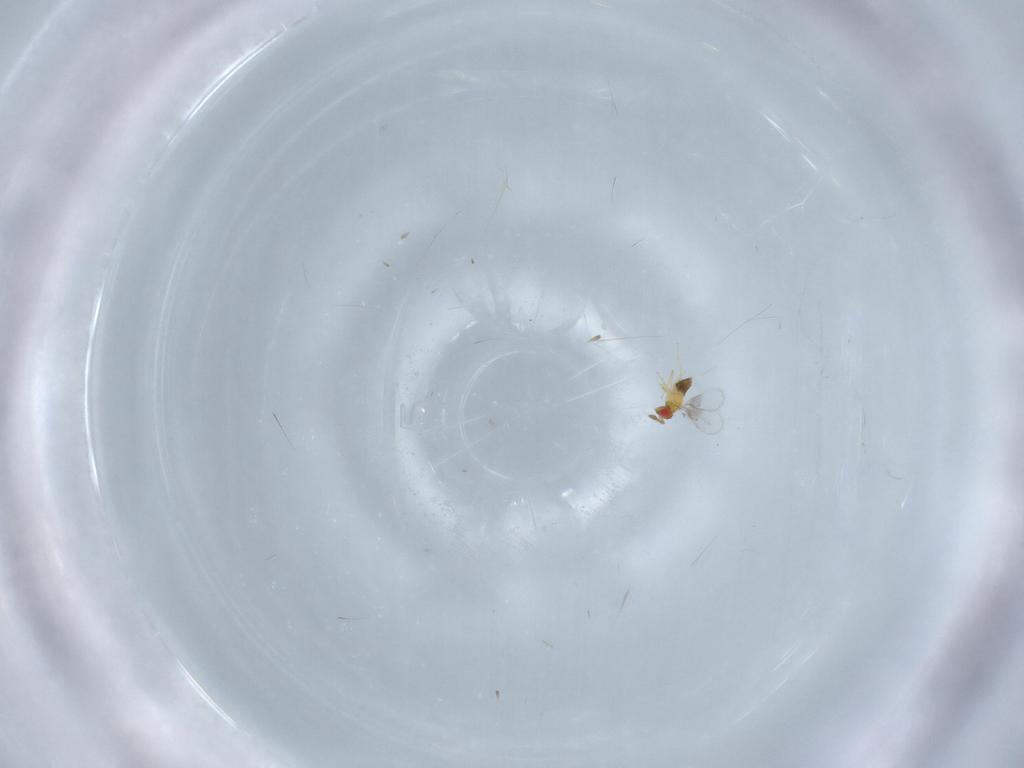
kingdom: Animalia
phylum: Arthropoda
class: Insecta
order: Hymenoptera
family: Trichogrammatidae
